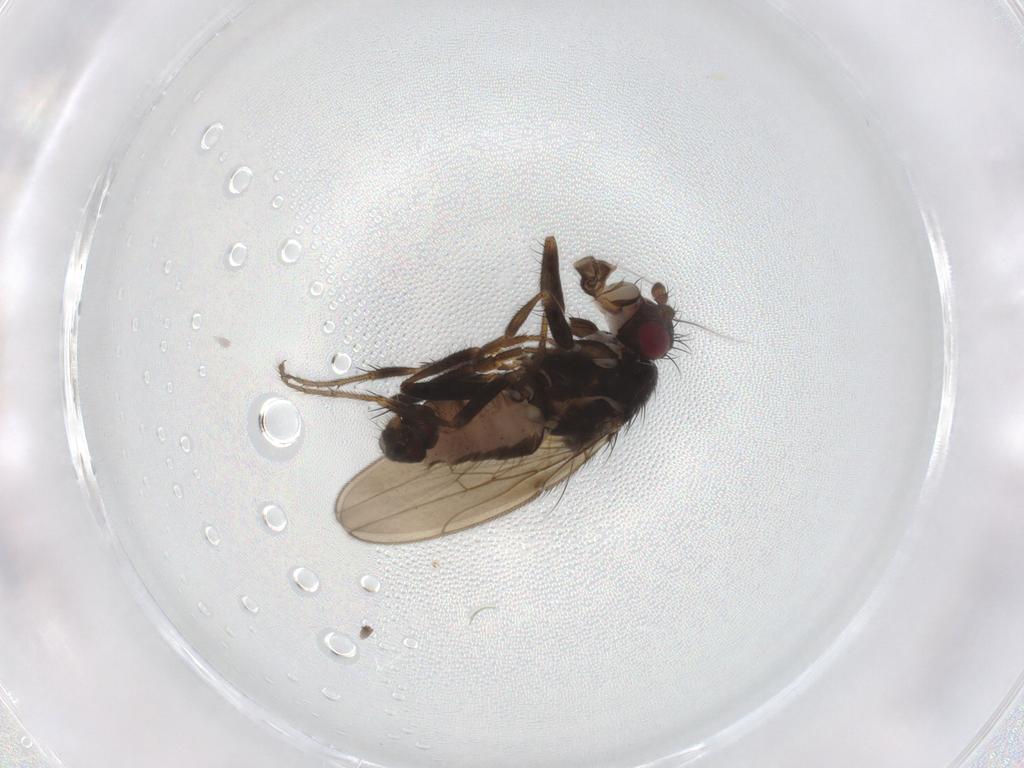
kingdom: Animalia
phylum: Arthropoda
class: Insecta
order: Diptera
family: Sphaeroceridae
